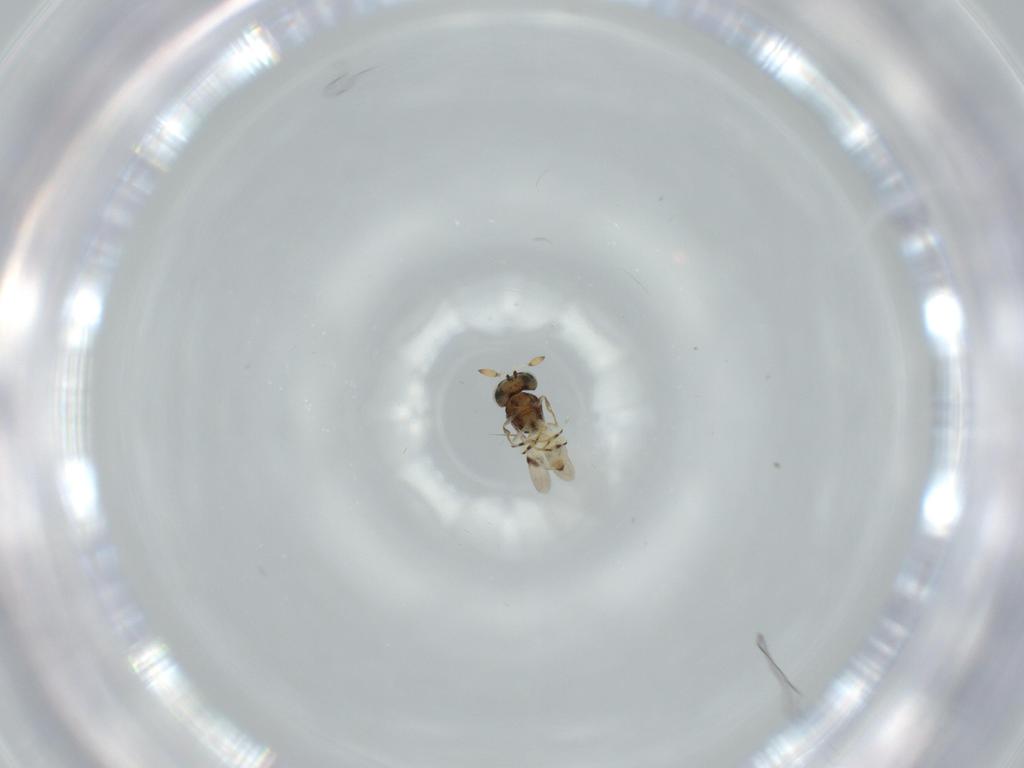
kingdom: Animalia
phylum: Arthropoda
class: Insecta
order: Hymenoptera
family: Scelionidae
